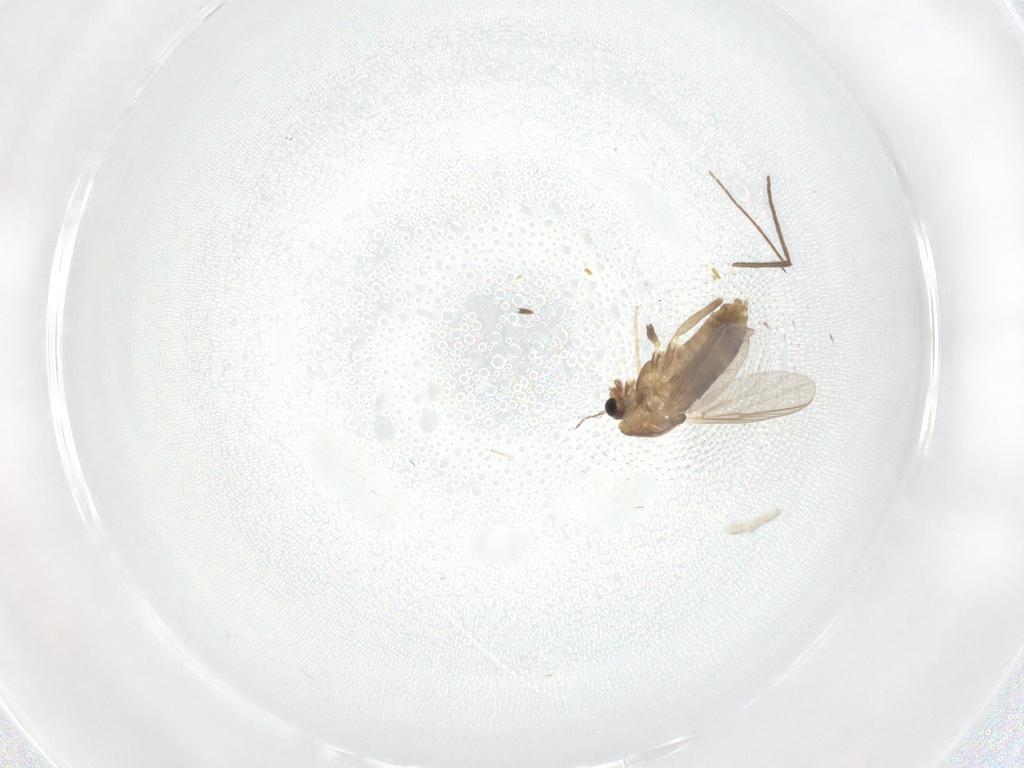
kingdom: Animalia
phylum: Arthropoda
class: Insecta
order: Diptera
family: Chironomidae
